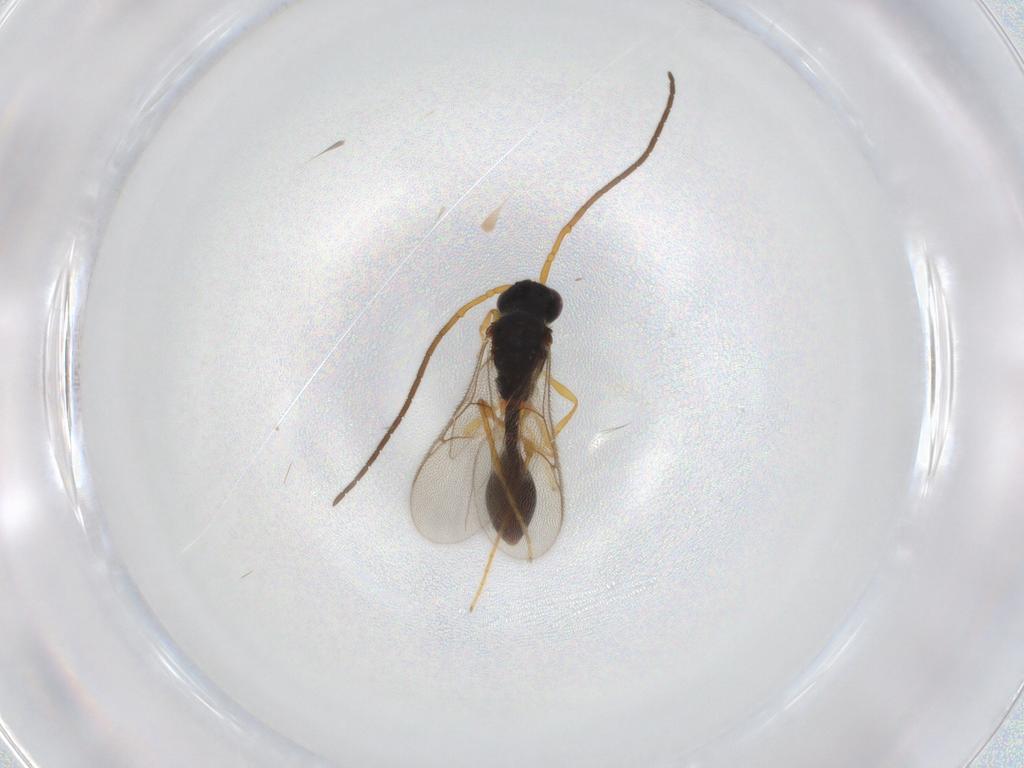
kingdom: Animalia
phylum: Arthropoda
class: Insecta
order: Hymenoptera
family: Diapriidae
